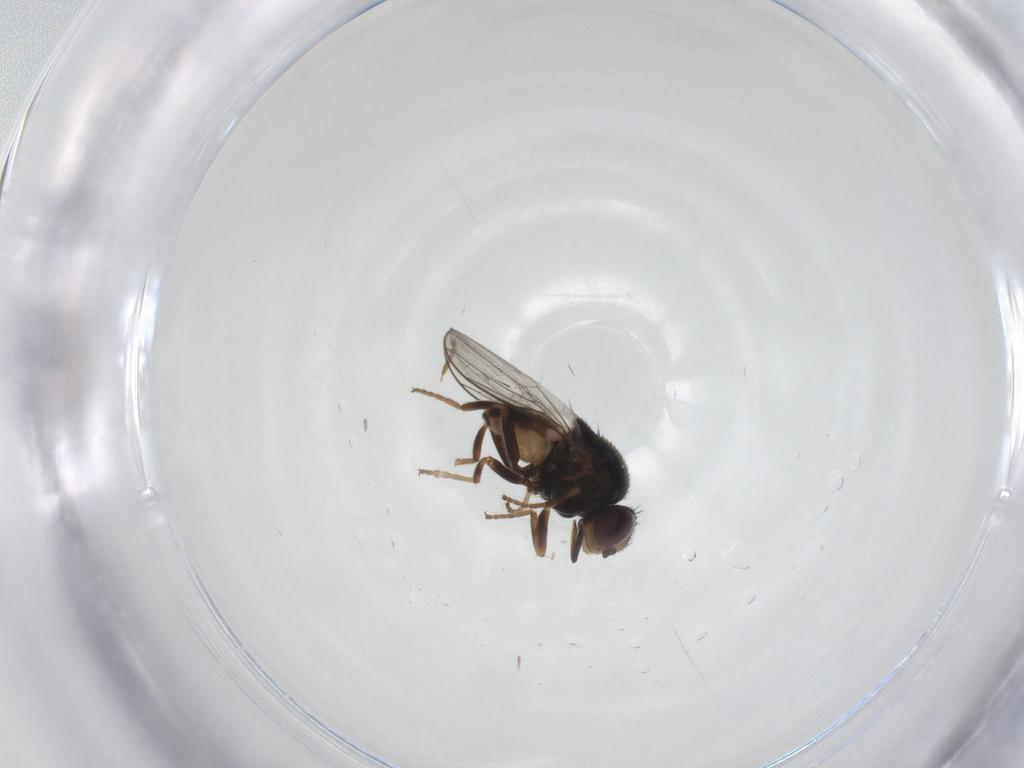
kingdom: Animalia
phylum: Arthropoda
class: Insecta
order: Diptera
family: Chloropidae
